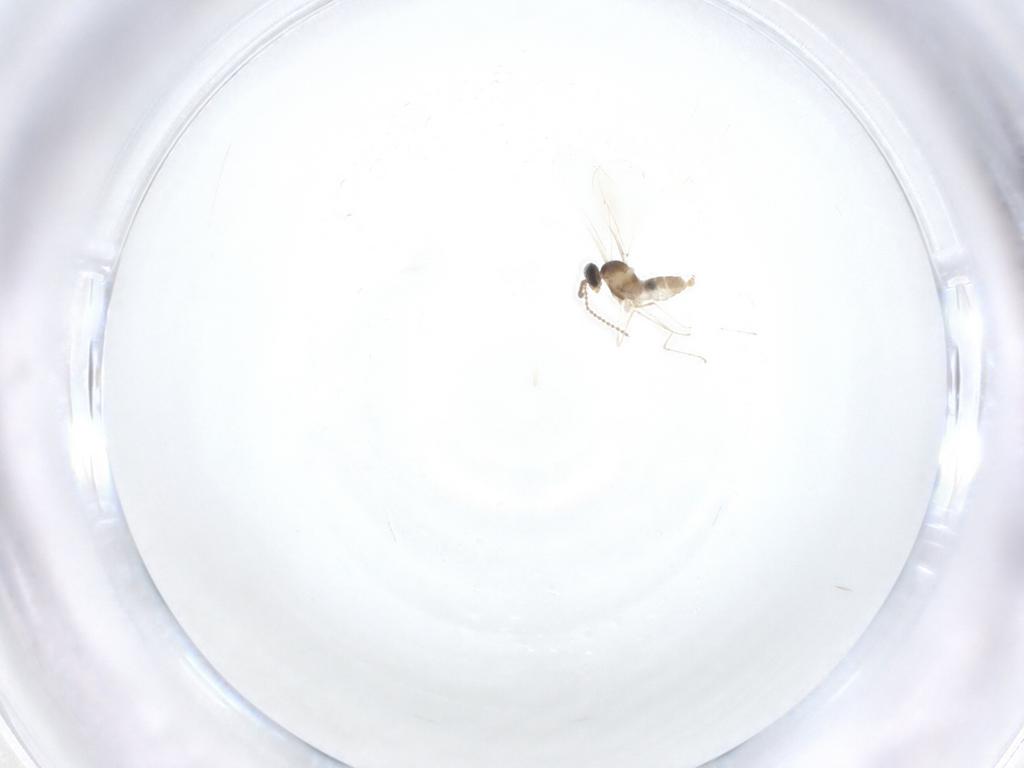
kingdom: Animalia
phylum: Arthropoda
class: Insecta
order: Diptera
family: Cecidomyiidae
